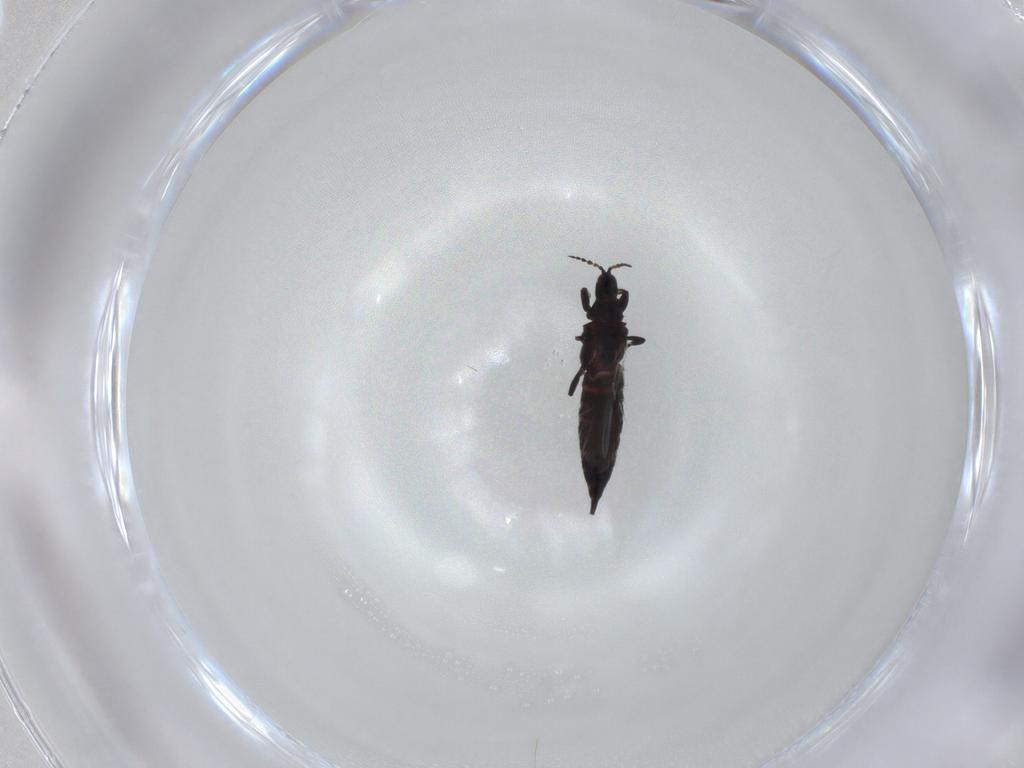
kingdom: Animalia
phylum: Arthropoda
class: Insecta
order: Thysanoptera
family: Phlaeothripidae
